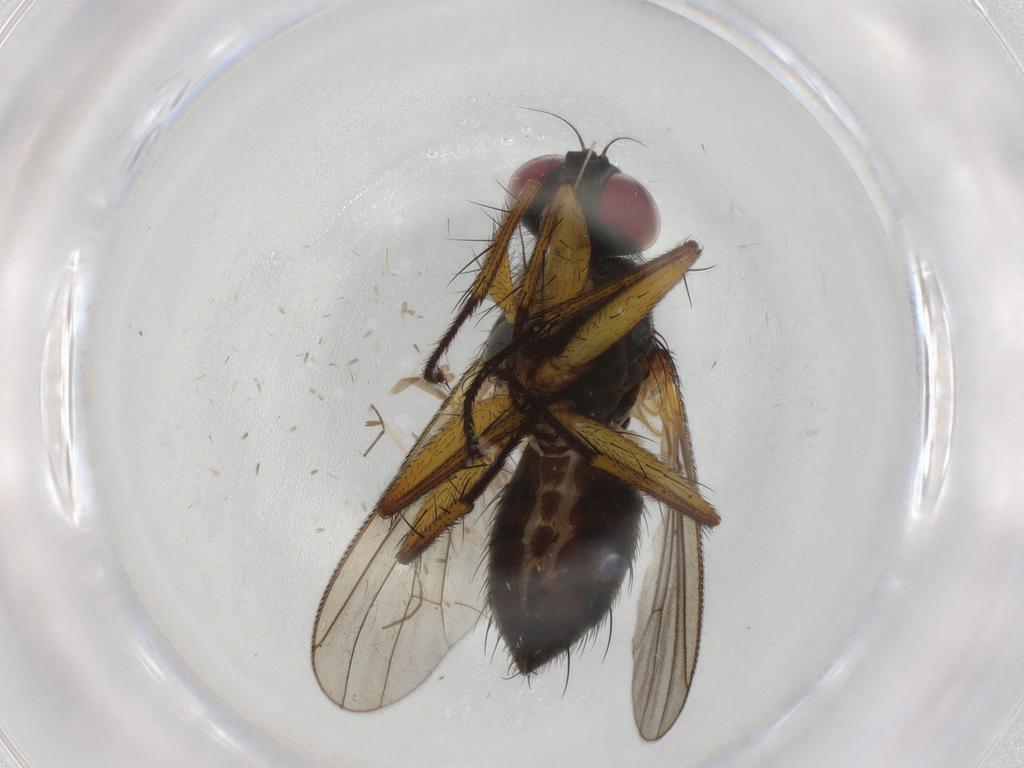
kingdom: Animalia
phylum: Arthropoda
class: Insecta
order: Diptera
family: Muscidae
